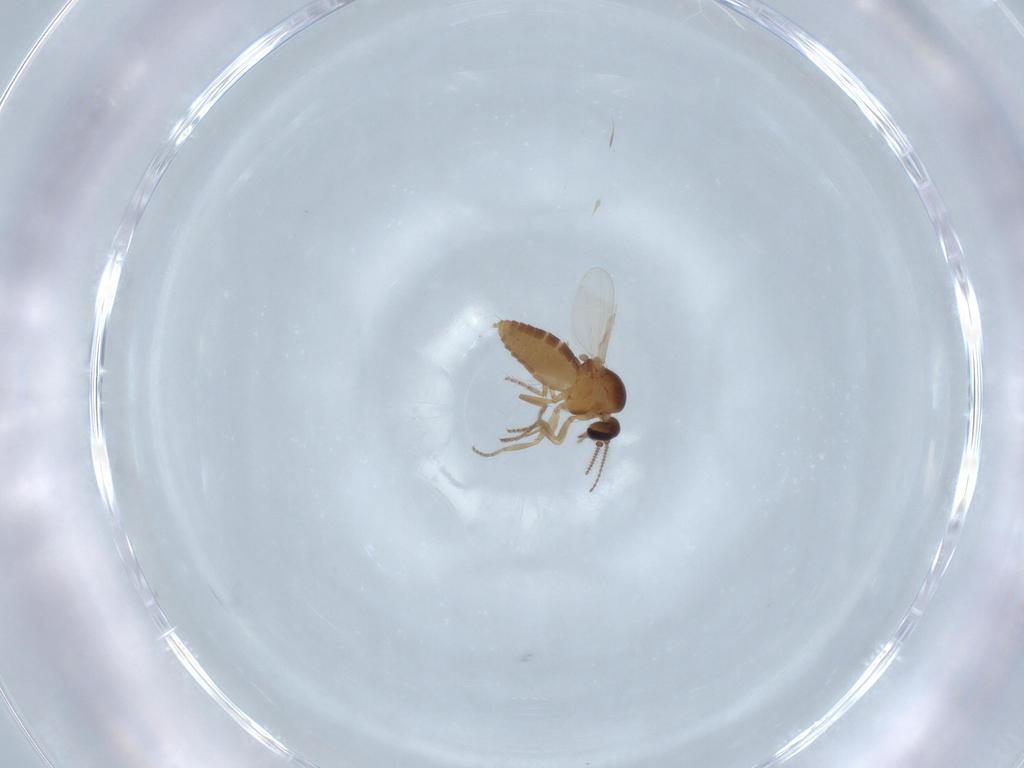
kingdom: Animalia
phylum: Arthropoda
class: Insecta
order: Diptera
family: Ceratopogonidae
